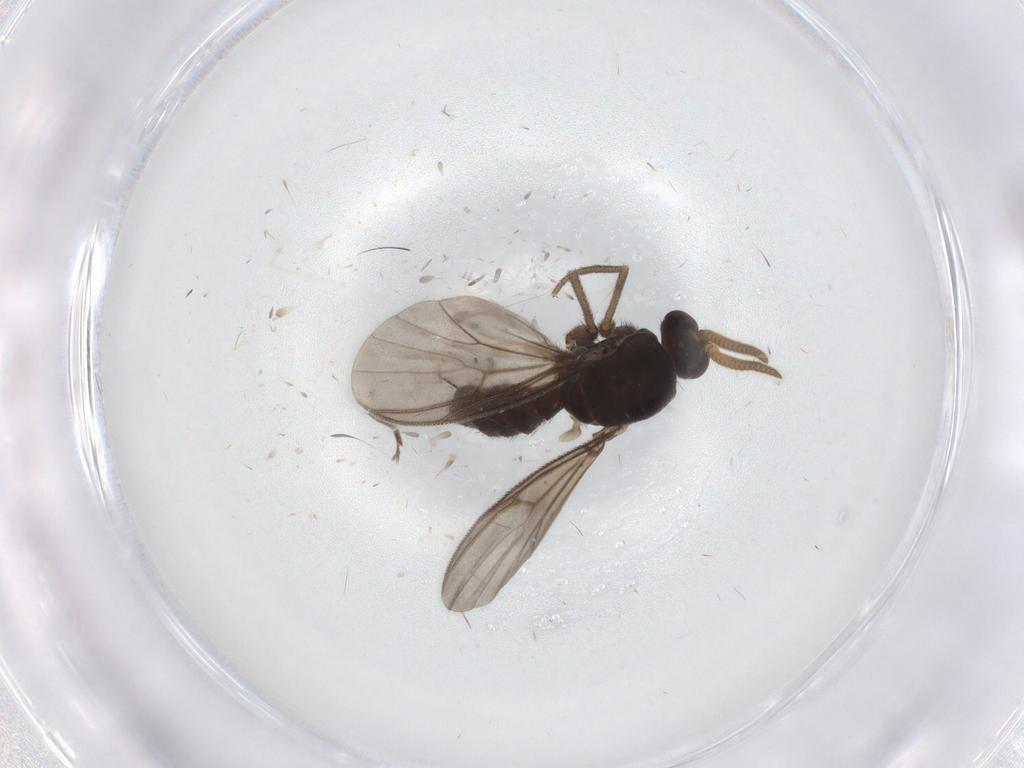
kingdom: Animalia
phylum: Arthropoda
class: Insecta
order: Diptera
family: Mycetophilidae
